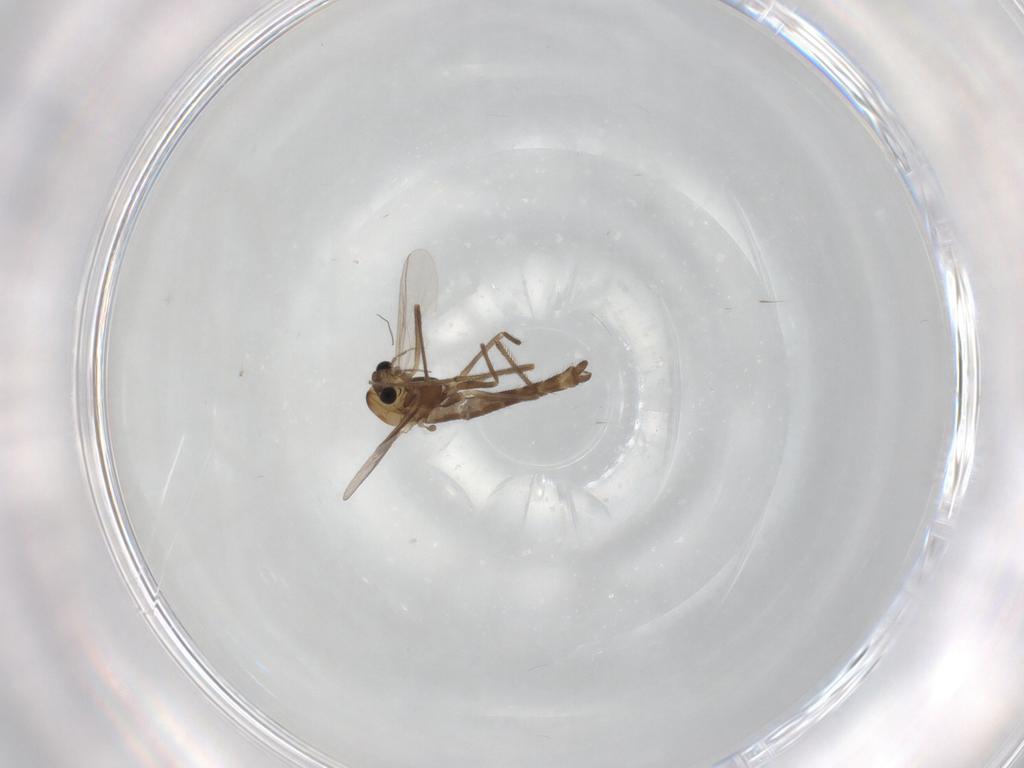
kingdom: Animalia
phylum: Arthropoda
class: Insecta
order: Diptera
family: Chironomidae
